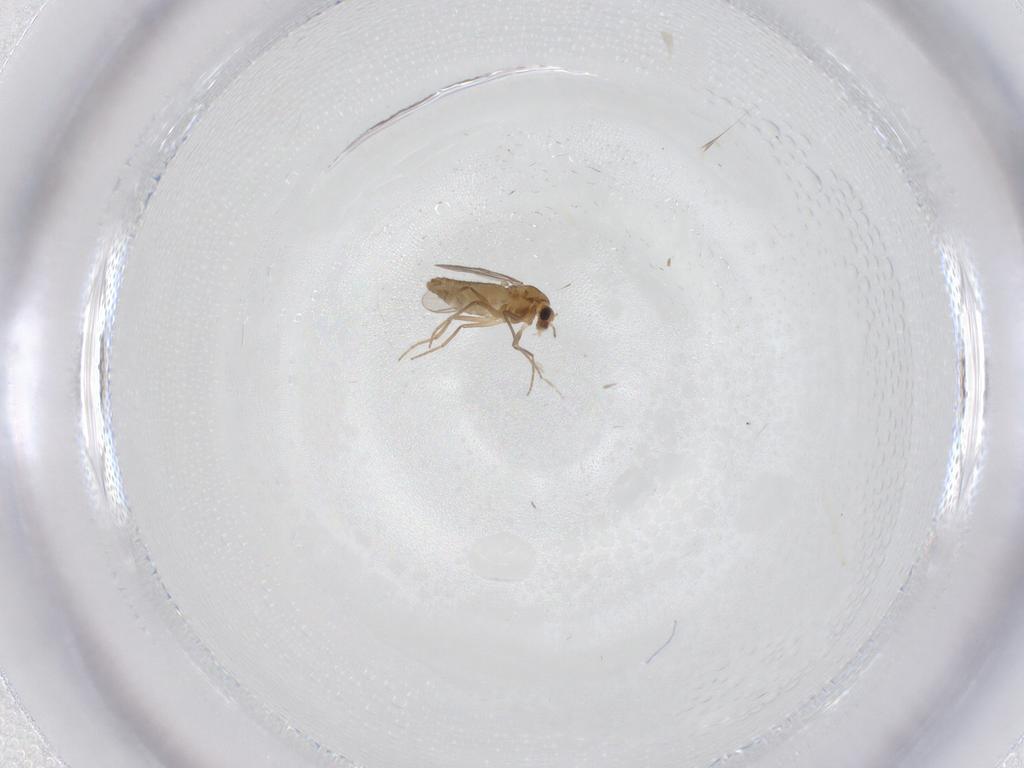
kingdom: Animalia
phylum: Arthropoda
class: Insecta
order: Diptera
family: Chironomidae
